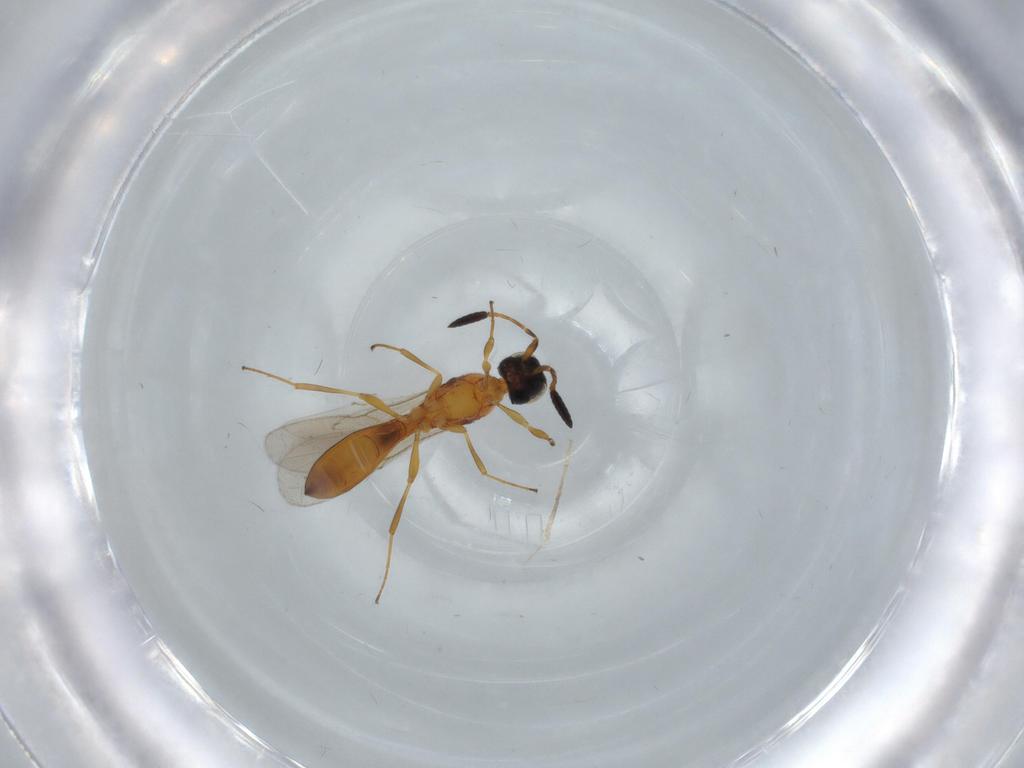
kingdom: Animalia
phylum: Arthropoda
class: Insecta
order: Hymenoptera
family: Scelionidae
